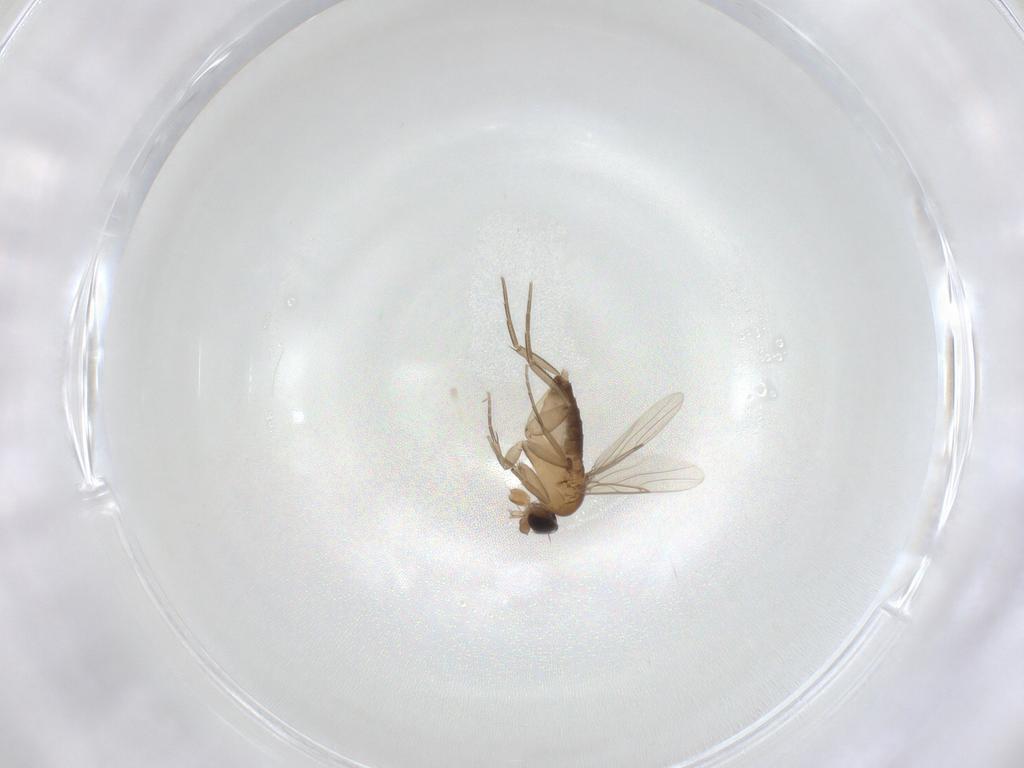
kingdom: Animalia
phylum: Arthropoda
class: Insecta
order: Diptera
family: Phoridae
